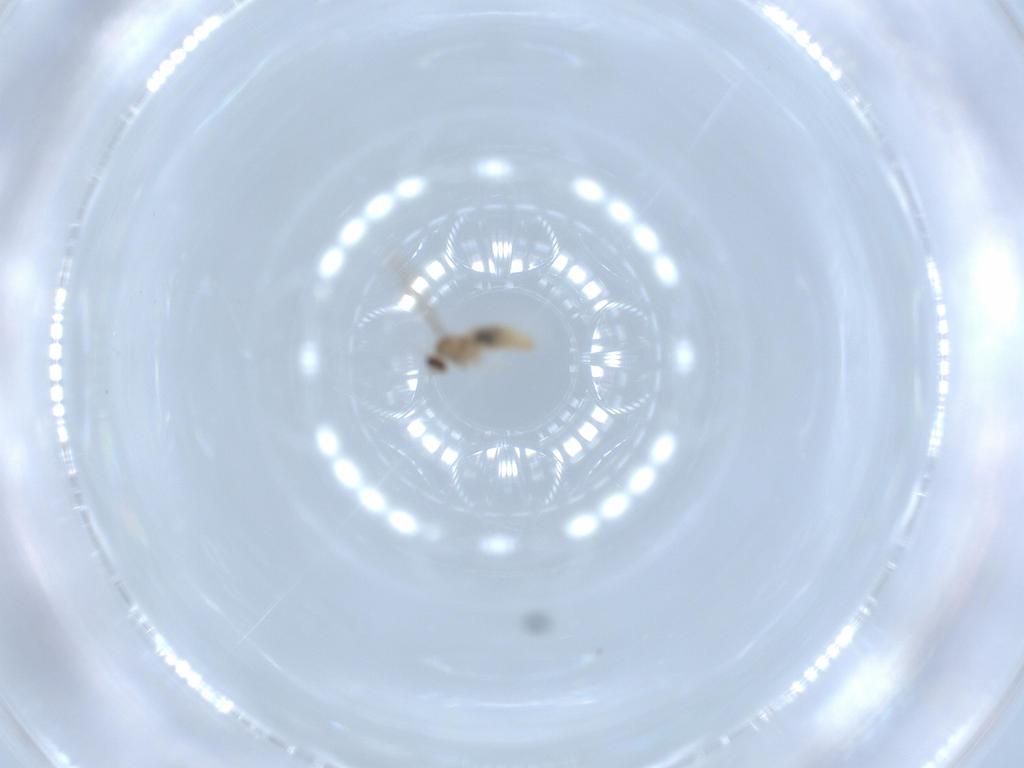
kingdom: Animalia
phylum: Arthropoda
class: Insecta
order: Diptera
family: Cecidomyiidae
